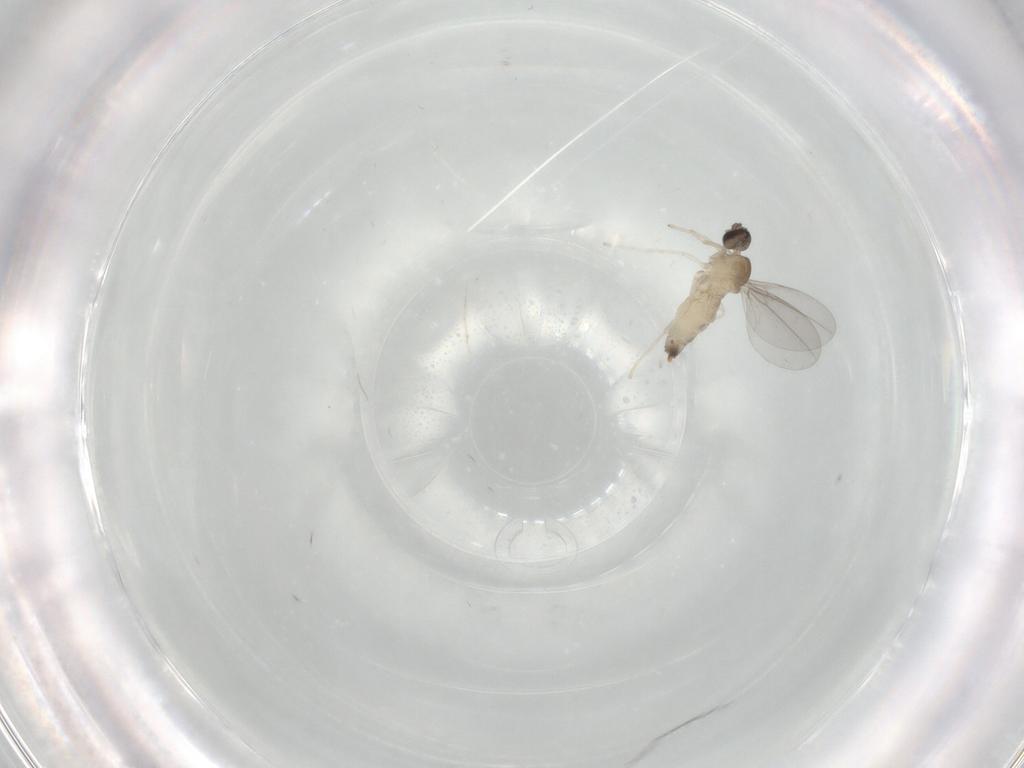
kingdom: Animalia
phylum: Arthropoda
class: Insecta
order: Diptera
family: Cecidomyiidae
